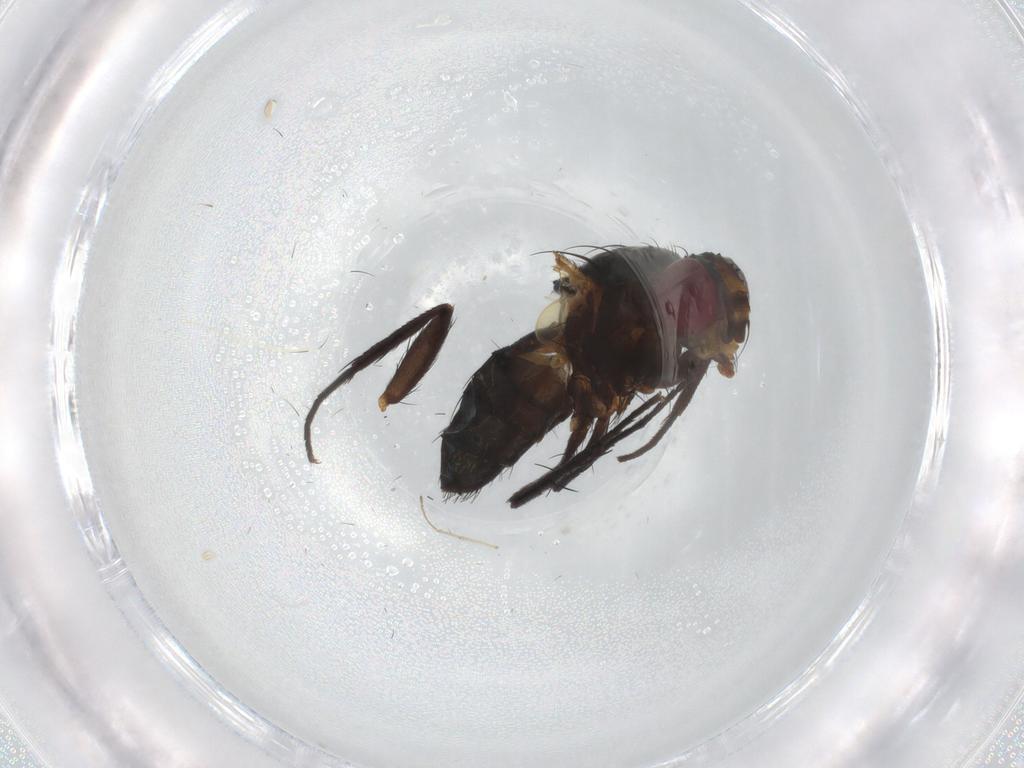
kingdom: Animalia
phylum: Arthropoda
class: Insecta
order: Diptera
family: Calliphoridae
